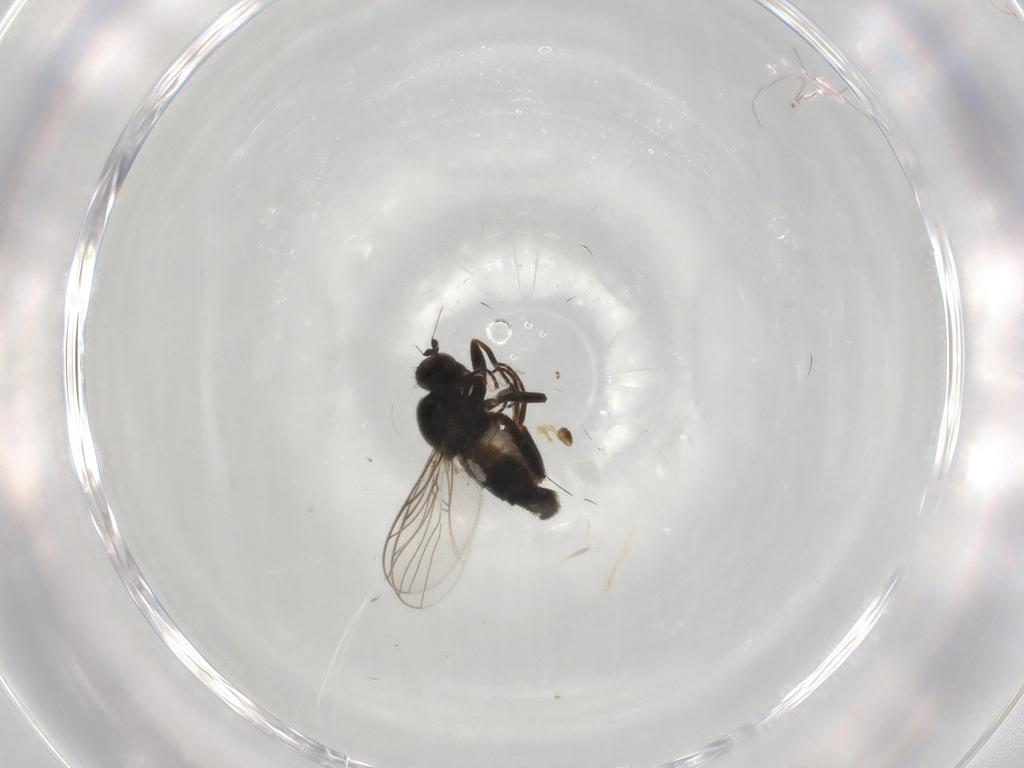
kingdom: Animalia
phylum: Arthropoda
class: Insecta
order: Diptera
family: Hybotidae
